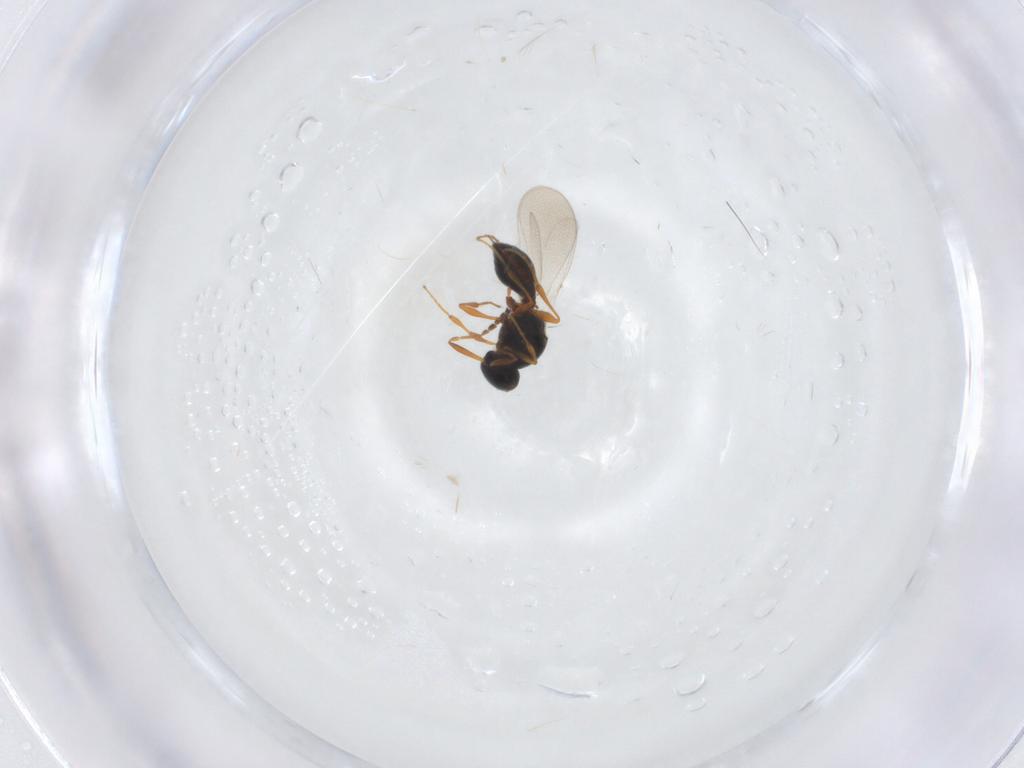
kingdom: Animalia
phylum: Arthropoda
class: Insecta
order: Hymenoptera
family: Platygastridae
